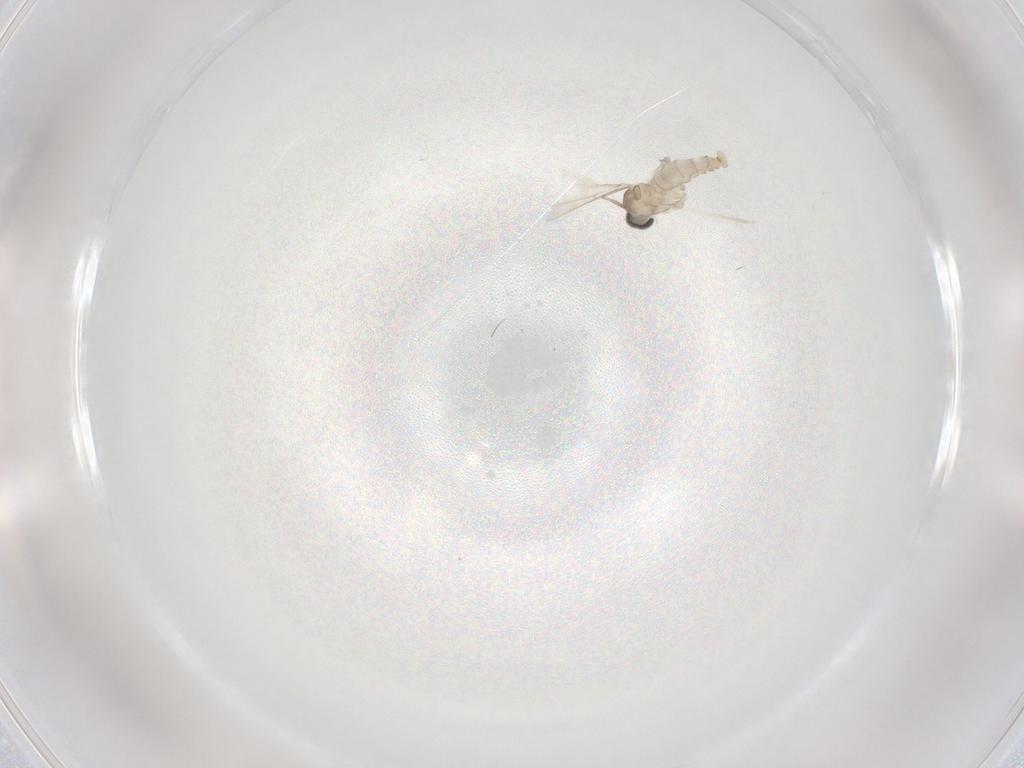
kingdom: Animalia
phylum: Arthropoda
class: Insecta
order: Diptera
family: Cecidomyiidae
